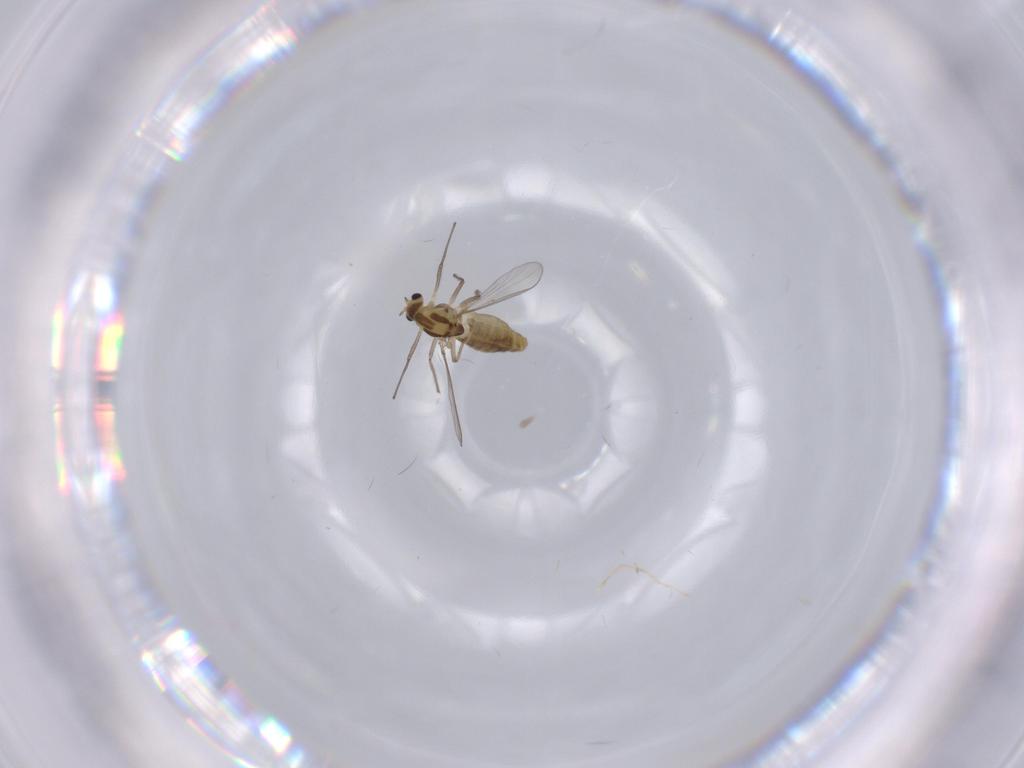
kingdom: Animalia
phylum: Arthropoda
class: Insecta
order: Diptera
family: Chironomidae
